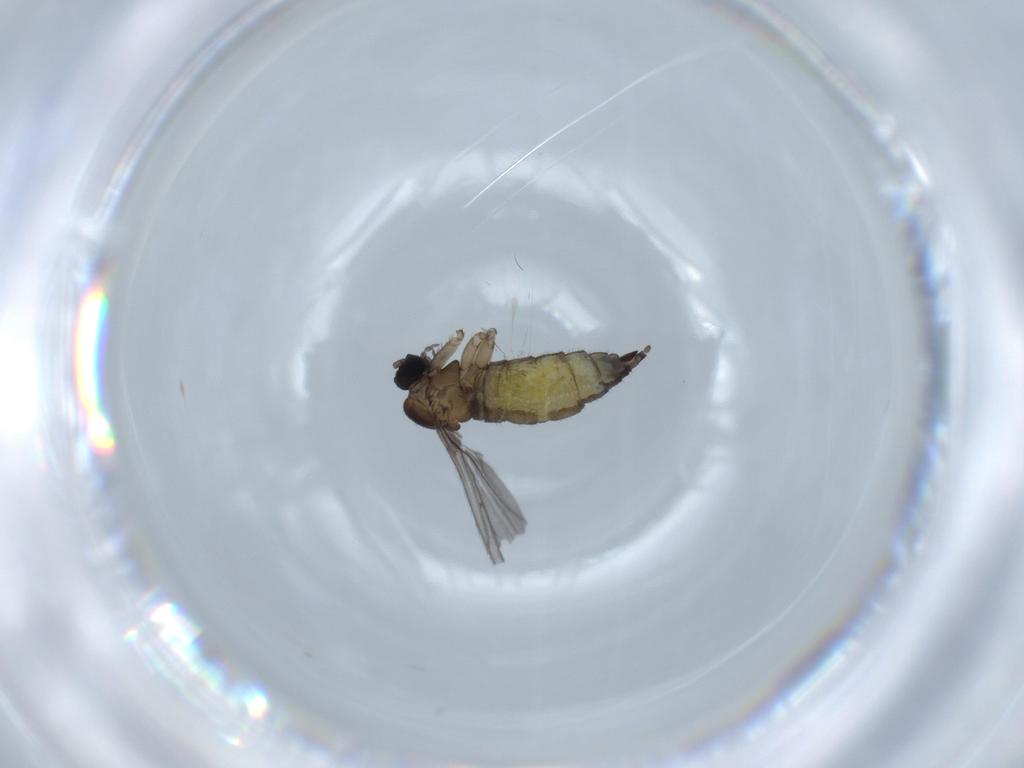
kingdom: Animalia
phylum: Arthropoda
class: Insecta
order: Diptera
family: Sciaridae
